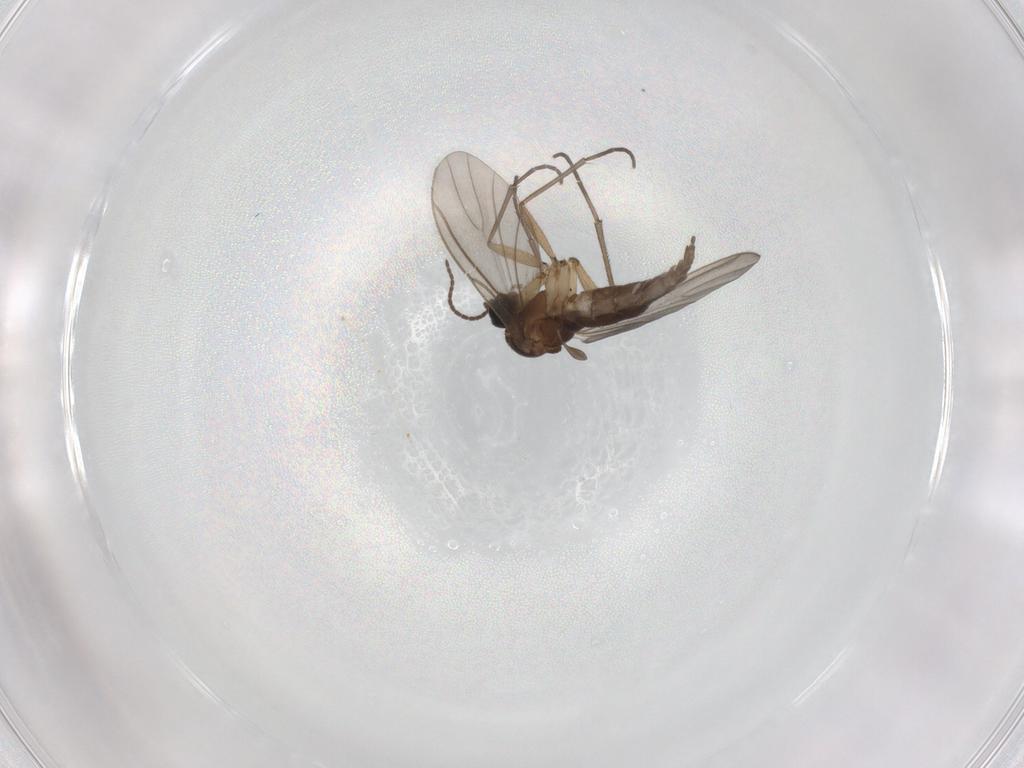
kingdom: Animalia
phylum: Arthropoda
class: Insecta
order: Diptera
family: Sciaridae
